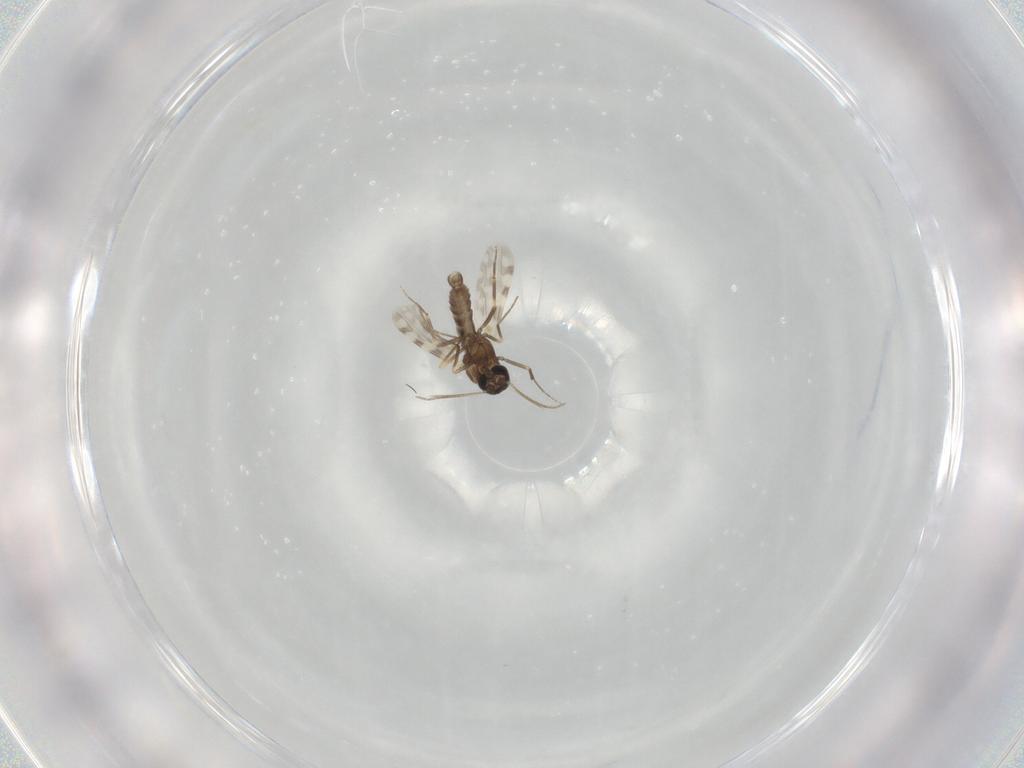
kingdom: Animalia
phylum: Arthropoda
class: Insecta
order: Diptera
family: Ceratopogonidae
